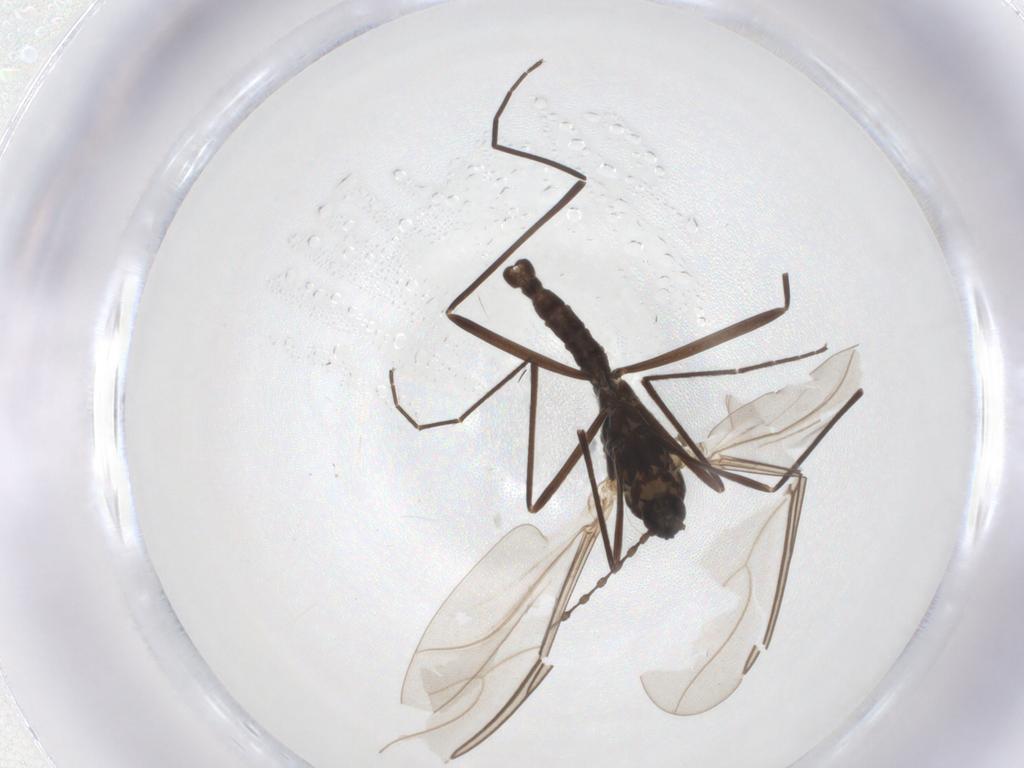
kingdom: Animalia
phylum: Arthropoda
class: Insecta
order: Diptera
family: Cecidomyiidae
